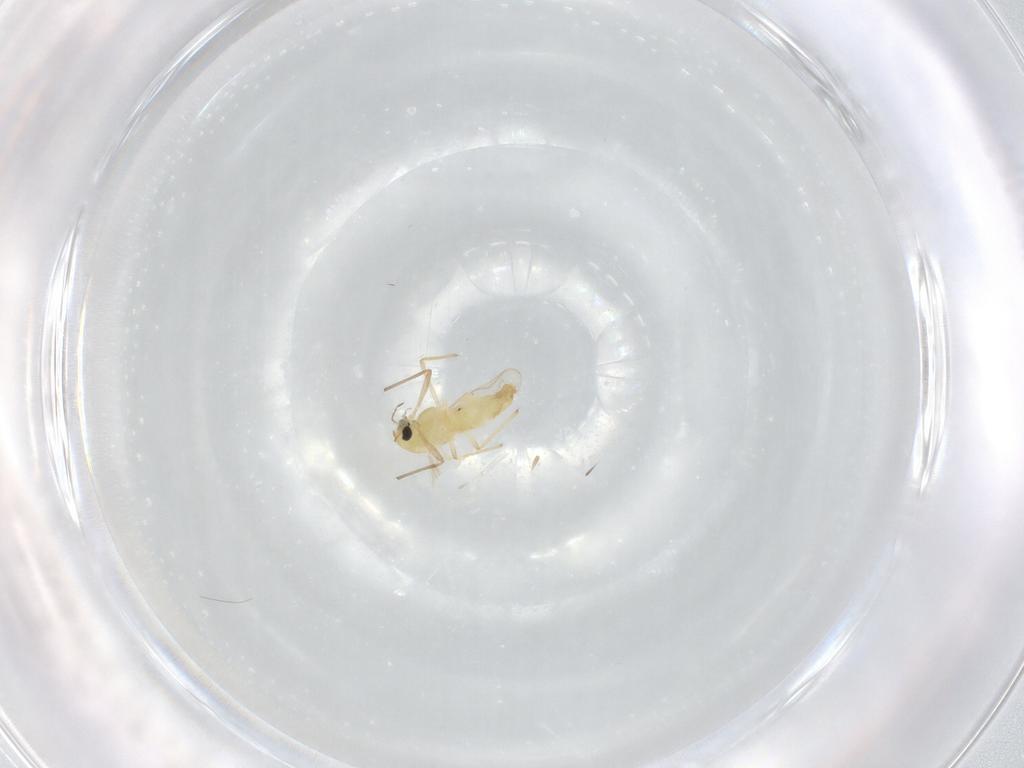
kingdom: Animalia
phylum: Arthropoda
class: Insecta
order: Diptera
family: Chironomidae
